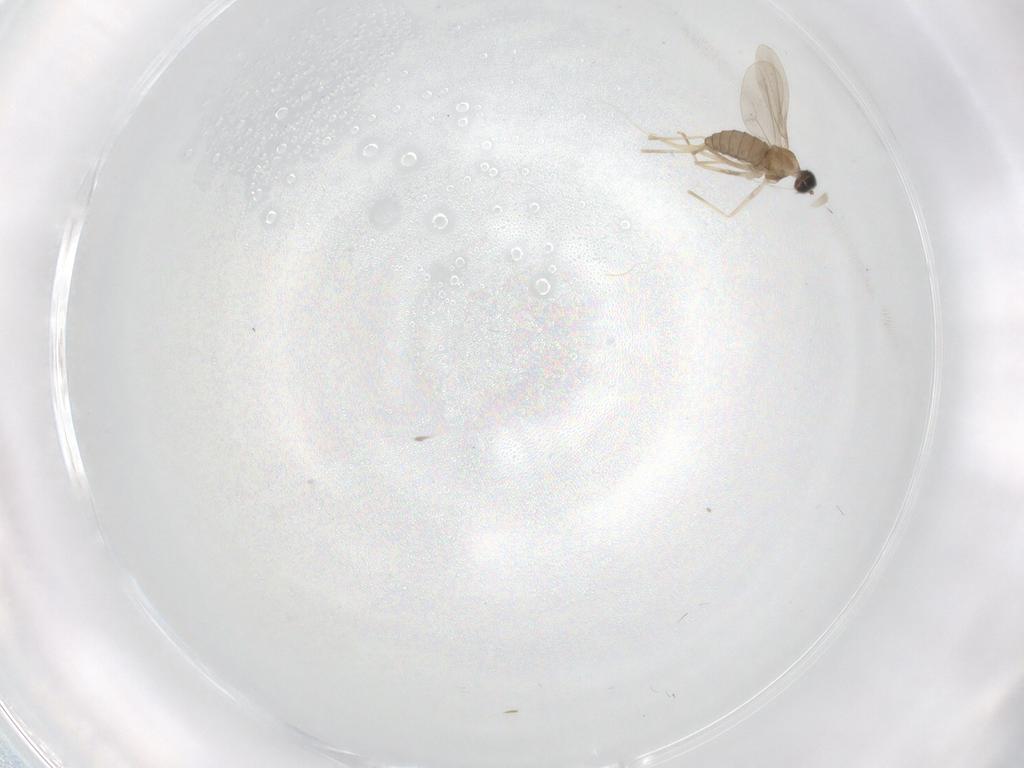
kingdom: Animalia
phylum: Arthropoda
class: Insecta
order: Diptera
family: Cecidomyiidae
